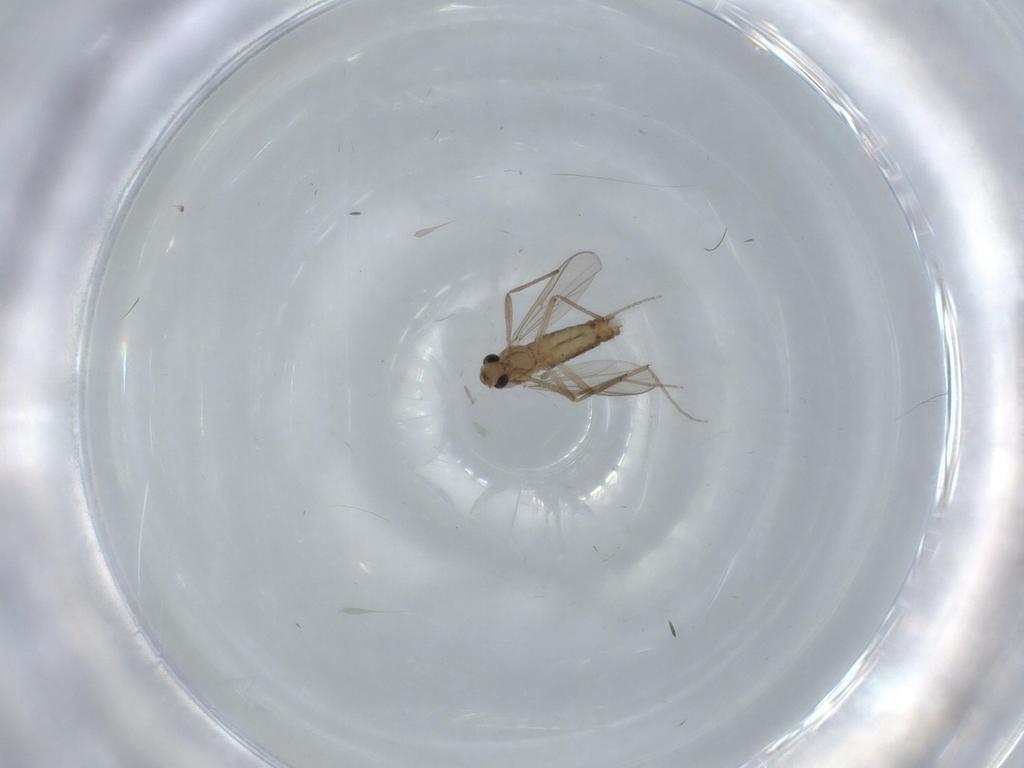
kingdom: Animalia
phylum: Arthropoda
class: Insecta
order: Diptera
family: Chironomidae
